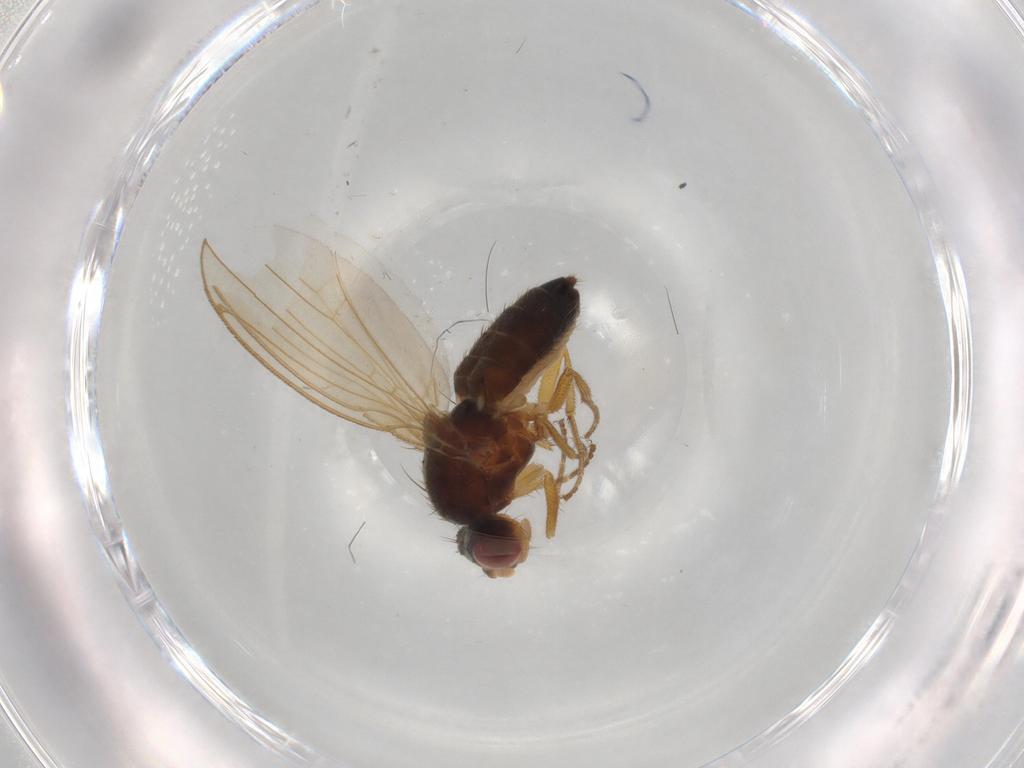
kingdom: Animalia
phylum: Arthropoda
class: Insecta
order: Diptera
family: Drosophilidae
